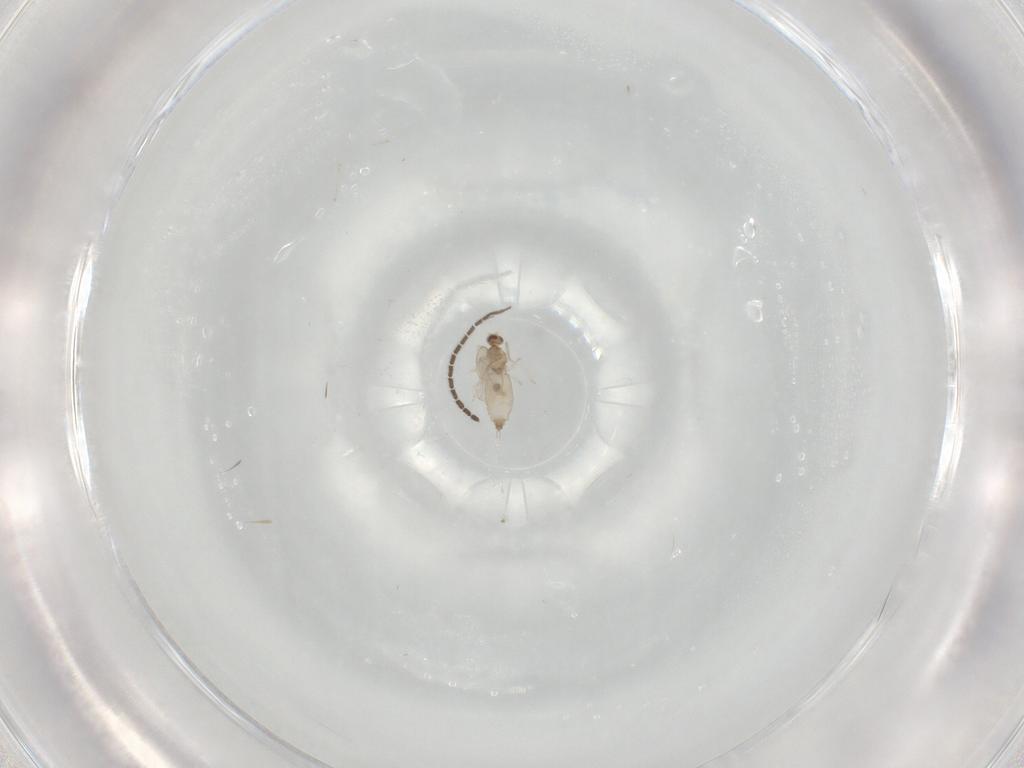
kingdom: Animalia
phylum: Arthropoda
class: Insecta
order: Diptera
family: Cecidomyiidae
